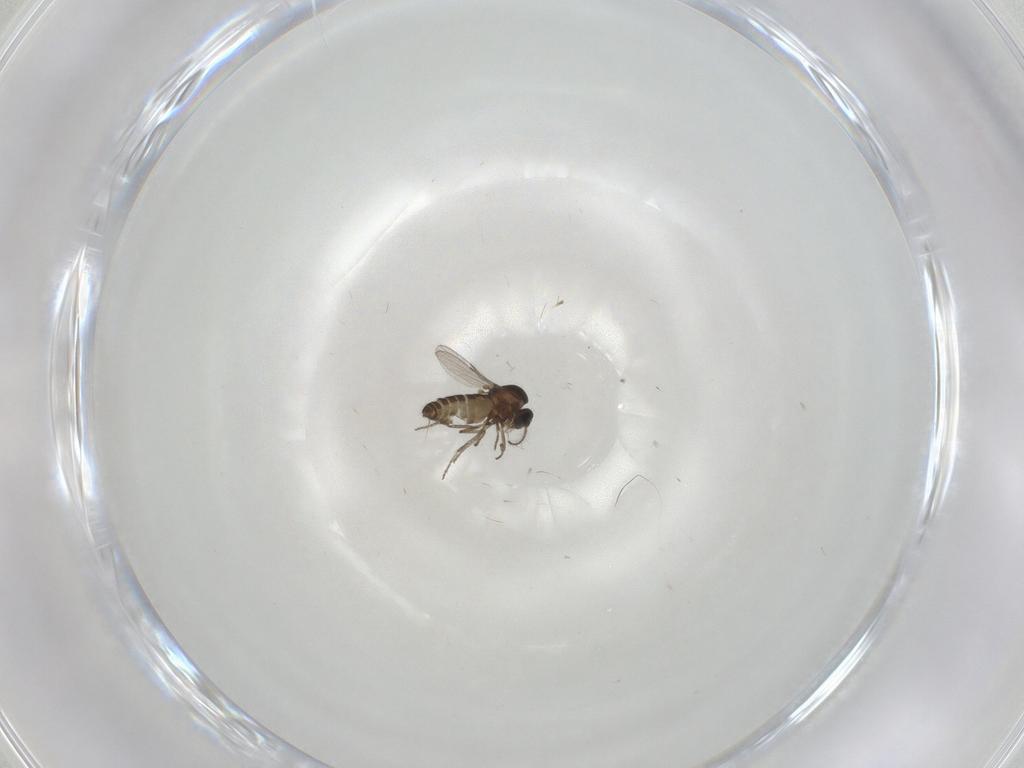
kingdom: Animalia
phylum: Arthropoda
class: Insecta
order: Diptera
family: Ceratopogonidae
